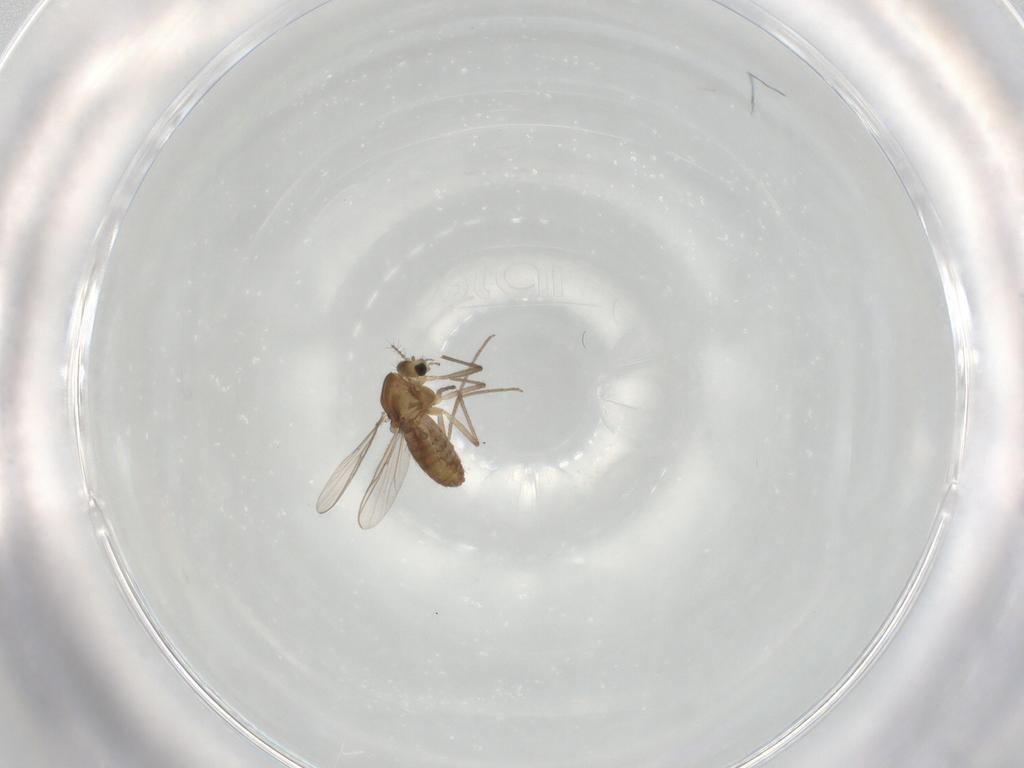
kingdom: Animalia
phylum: Arthropoda
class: Insecta
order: Diptera
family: Chironomidae
